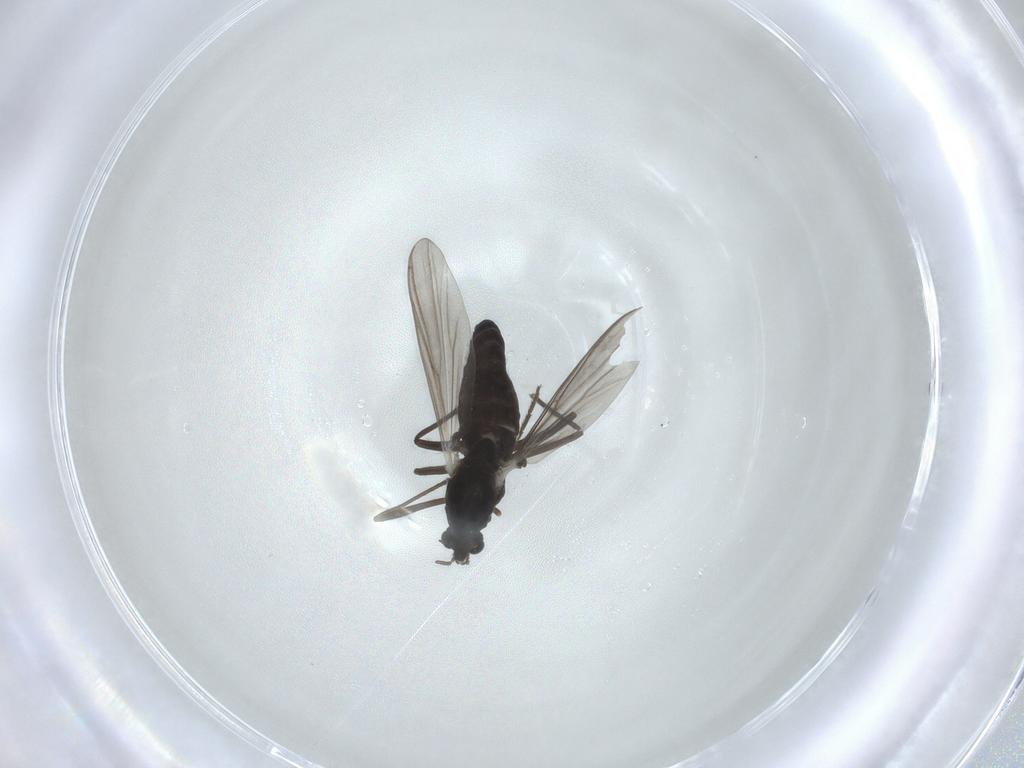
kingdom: Animalia
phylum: Arthropoda
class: Insecta
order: Diptera
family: Chironomidae
